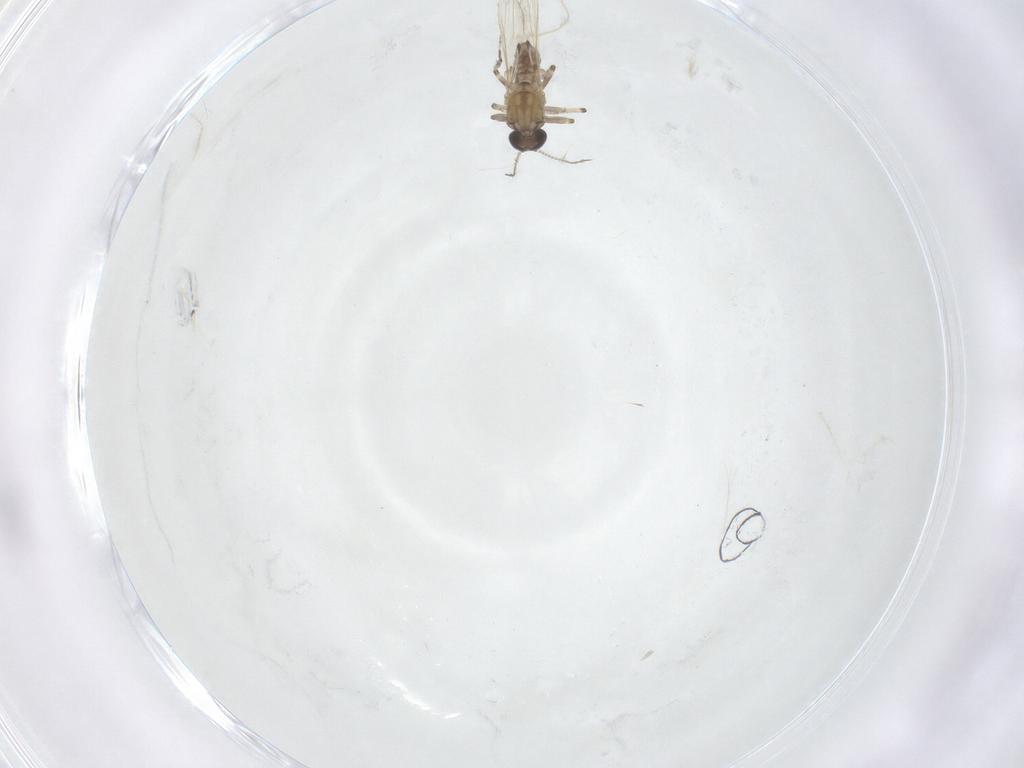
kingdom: Animalia
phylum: Arthropoda
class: Insecta
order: Diptera
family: Ceratopogonidae
